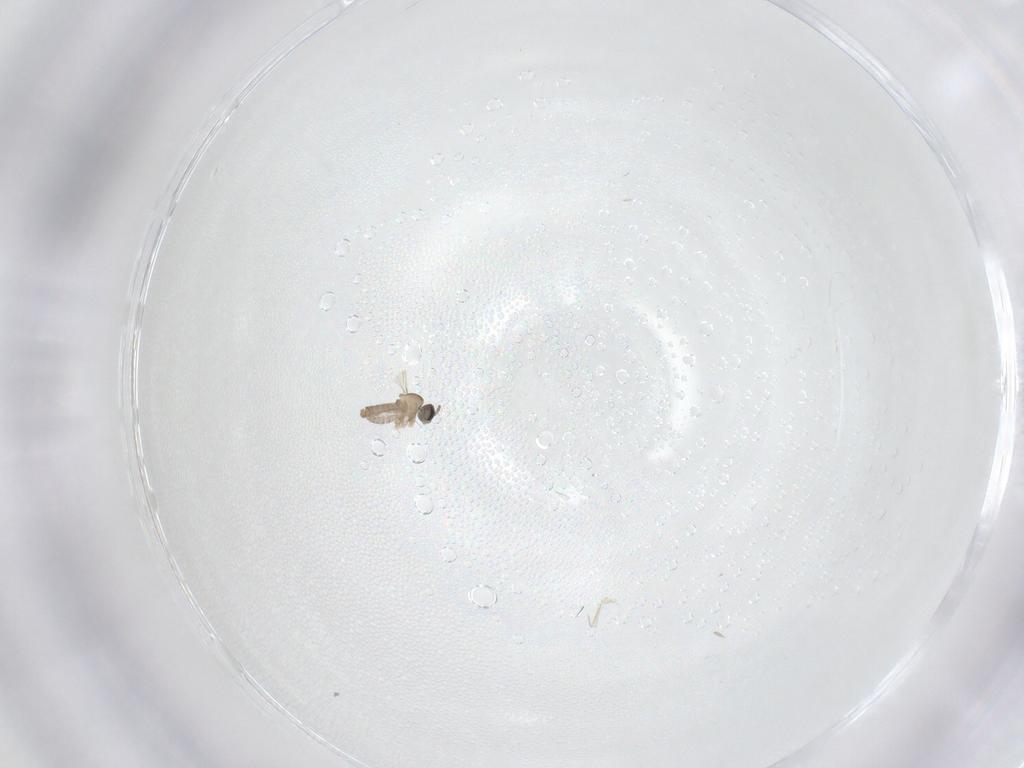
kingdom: Animalia
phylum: Arthropoda
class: Insecta
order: Diptera
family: Cecidomyiidae
